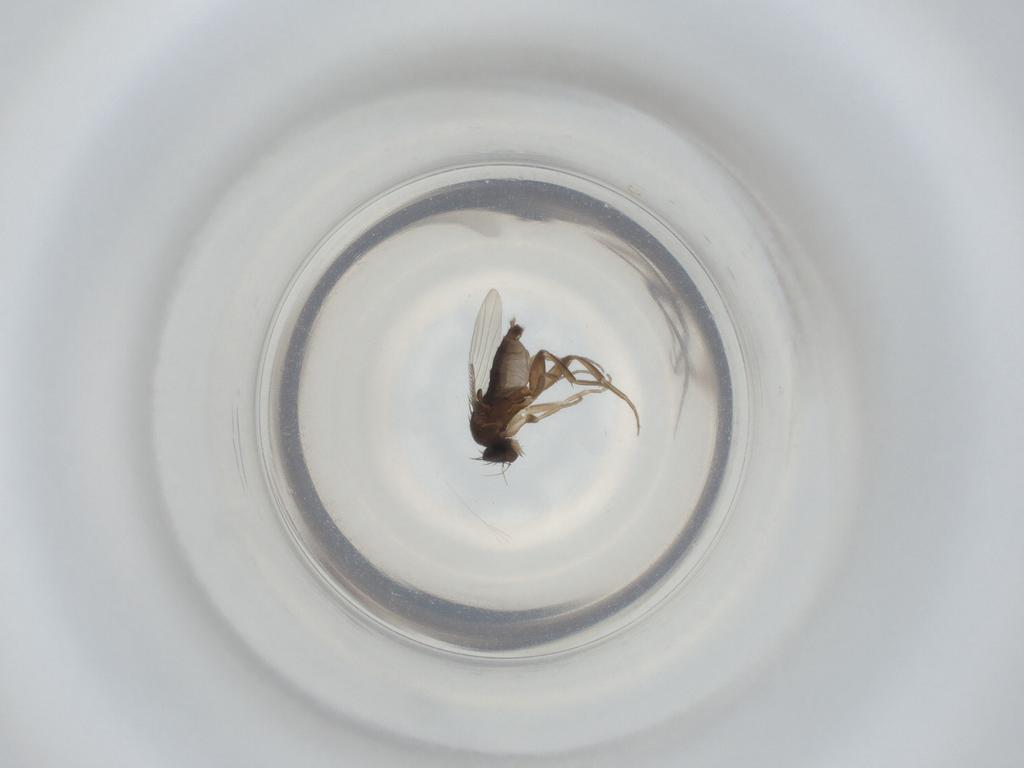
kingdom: Animalia
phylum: Arthropoda
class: Insecta
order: Diptera
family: Phoridae
